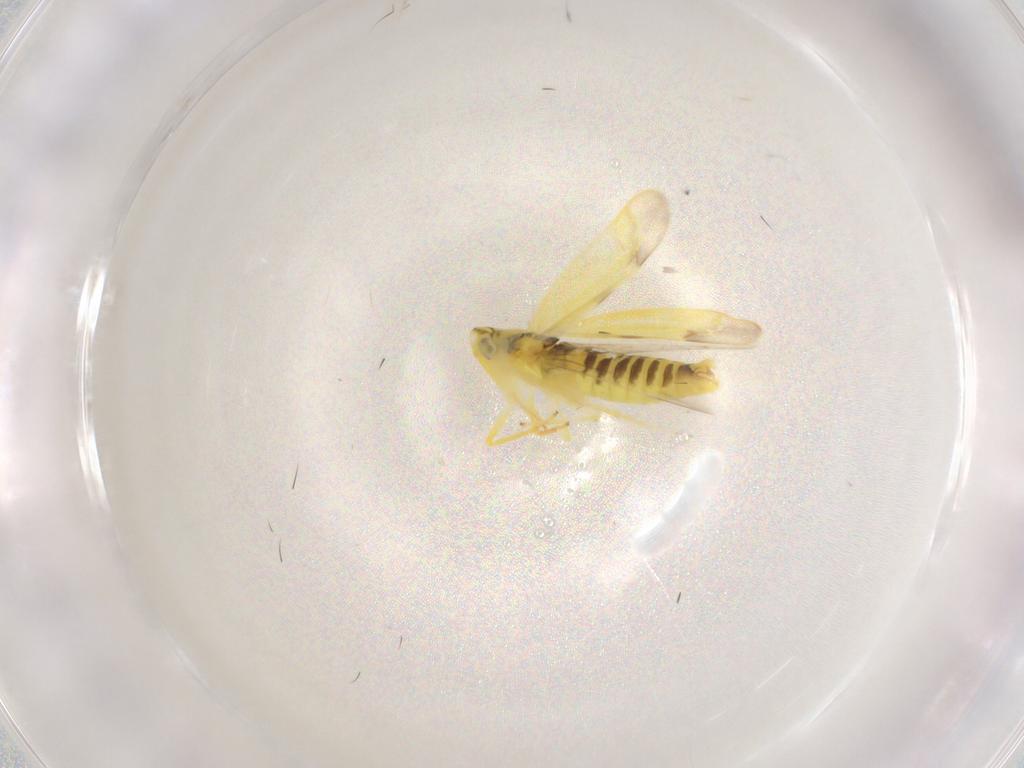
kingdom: Animalia
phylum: Arthropoda
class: Insecta
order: Hemiptera
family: Cicadellidae
